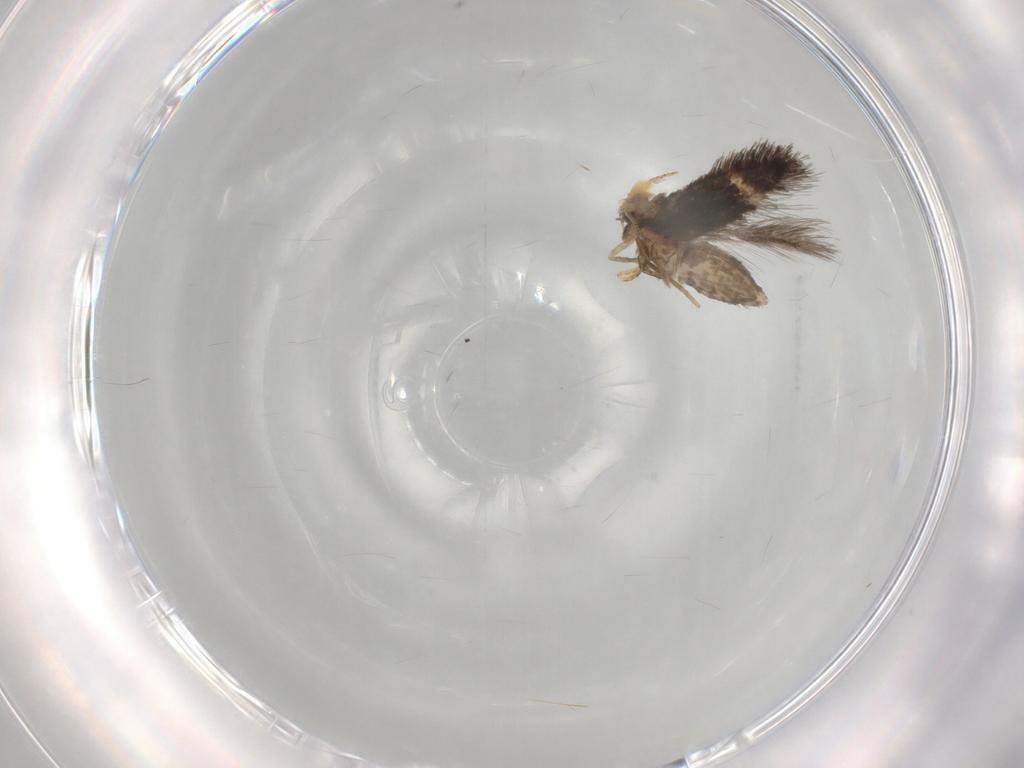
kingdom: Animalia
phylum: Arthropoda
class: Insecta
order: Lepidoptera
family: Nepticulidae
